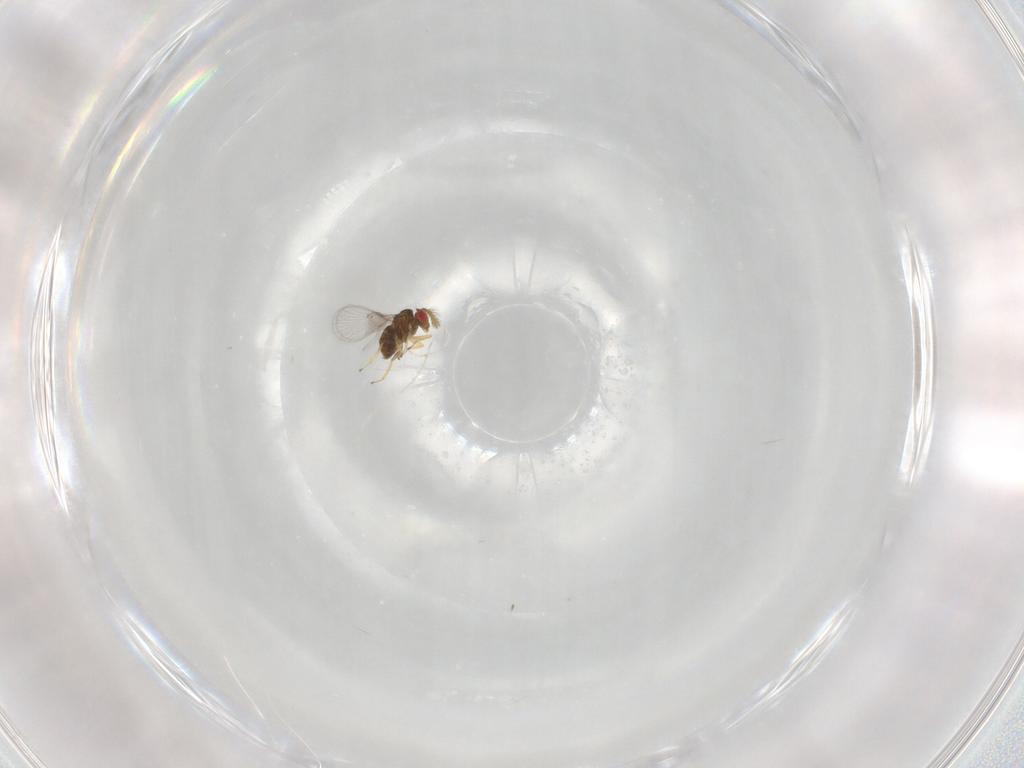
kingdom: Animalia
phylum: Arthropoda
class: Insecta
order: Hymenoptera
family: Trichogrammatidae
